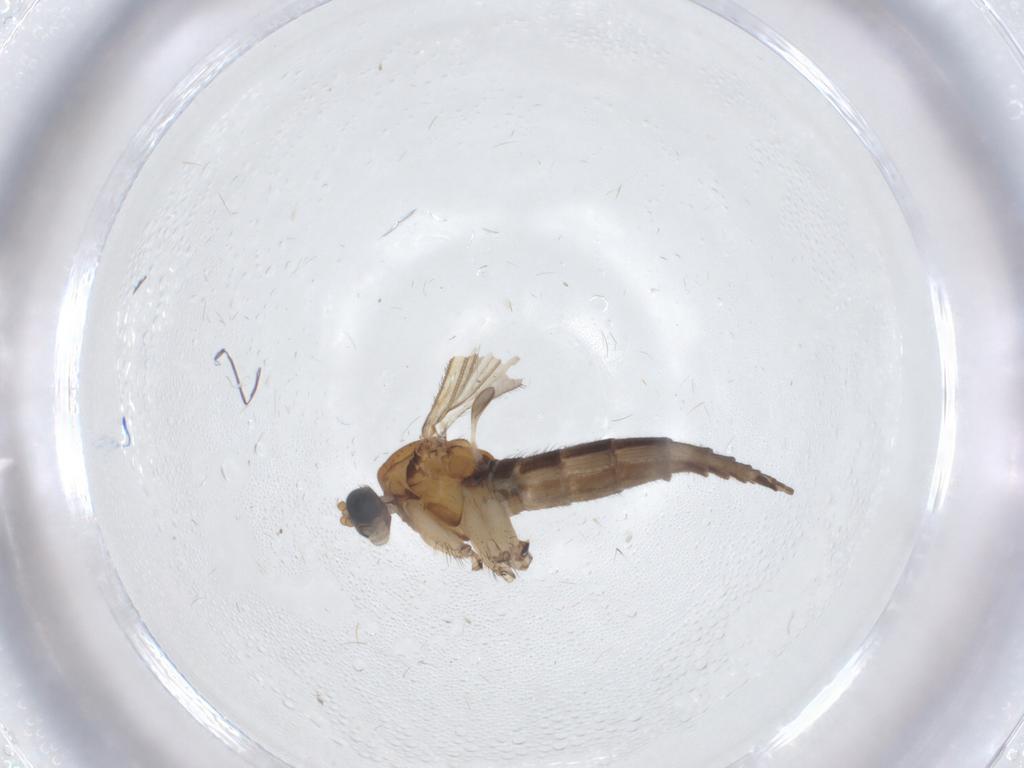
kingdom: Animalia
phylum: Arthropoda
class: Insecta
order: Diptera
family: Sciaridae
